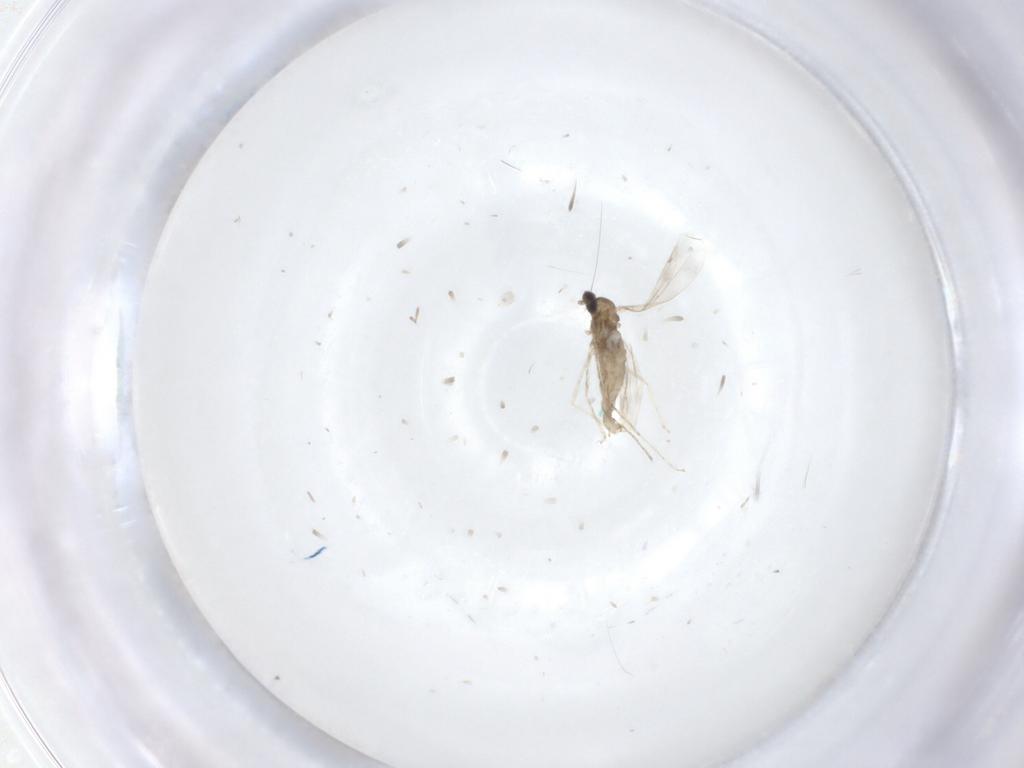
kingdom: Animalia
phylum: Arthropoda
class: Insecta
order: Diptera
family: Cecidomyiidae
